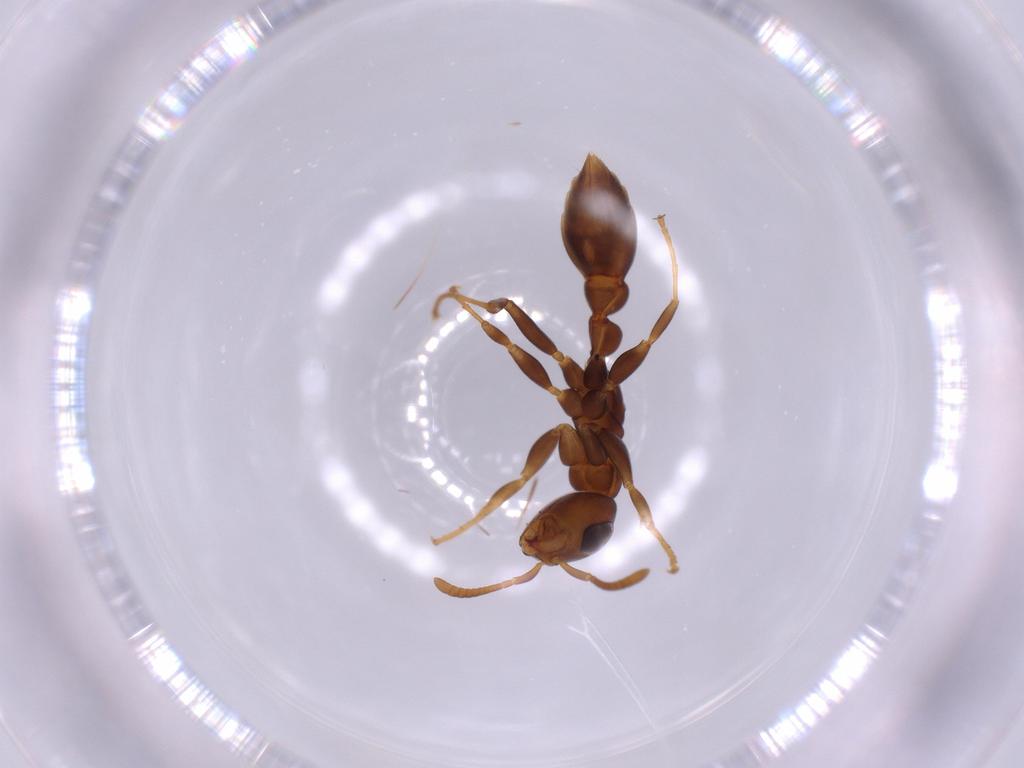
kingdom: Animalia
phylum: Arthropoda
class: Insecta
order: Hymenoptera
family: Formicidae
